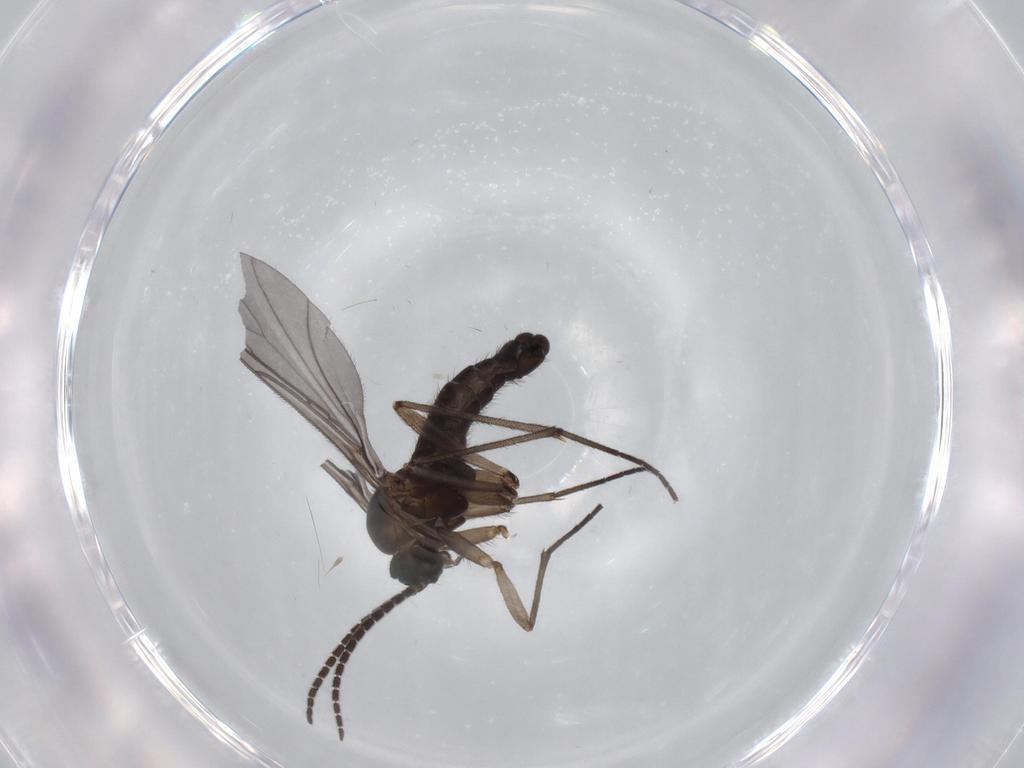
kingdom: Animalia
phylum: Arthropoda
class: Insecta
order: Diptera
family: Sciaridae
